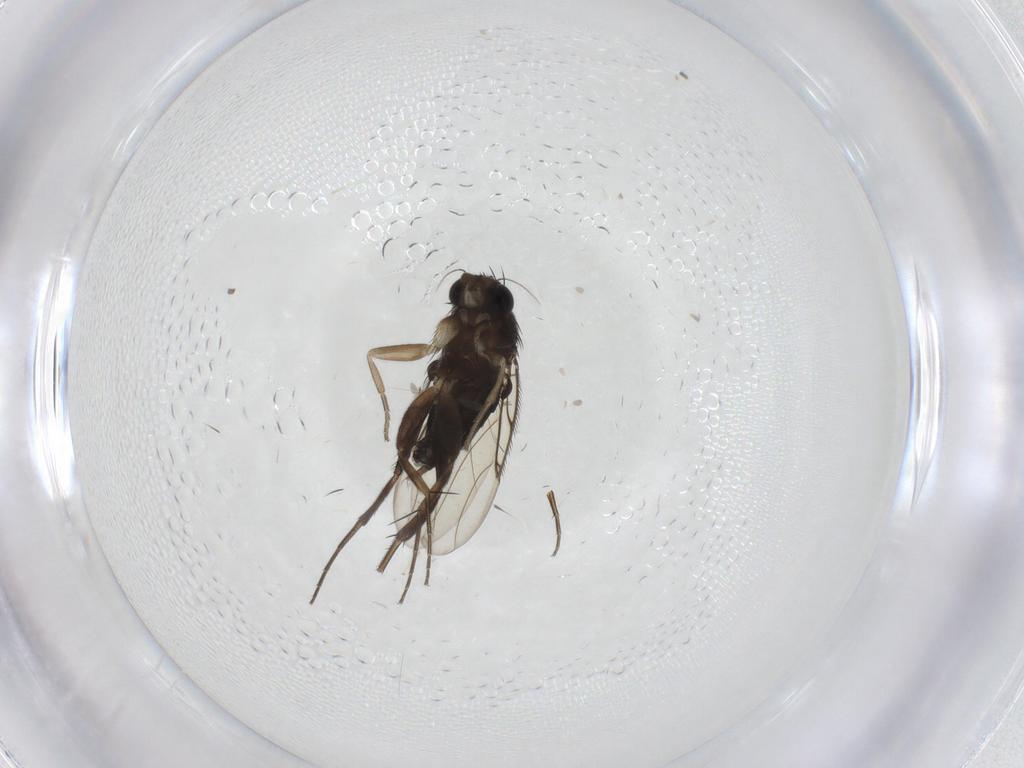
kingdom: Animalia
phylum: Arthropoda
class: Insecta
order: Diptera
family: Phoridae
